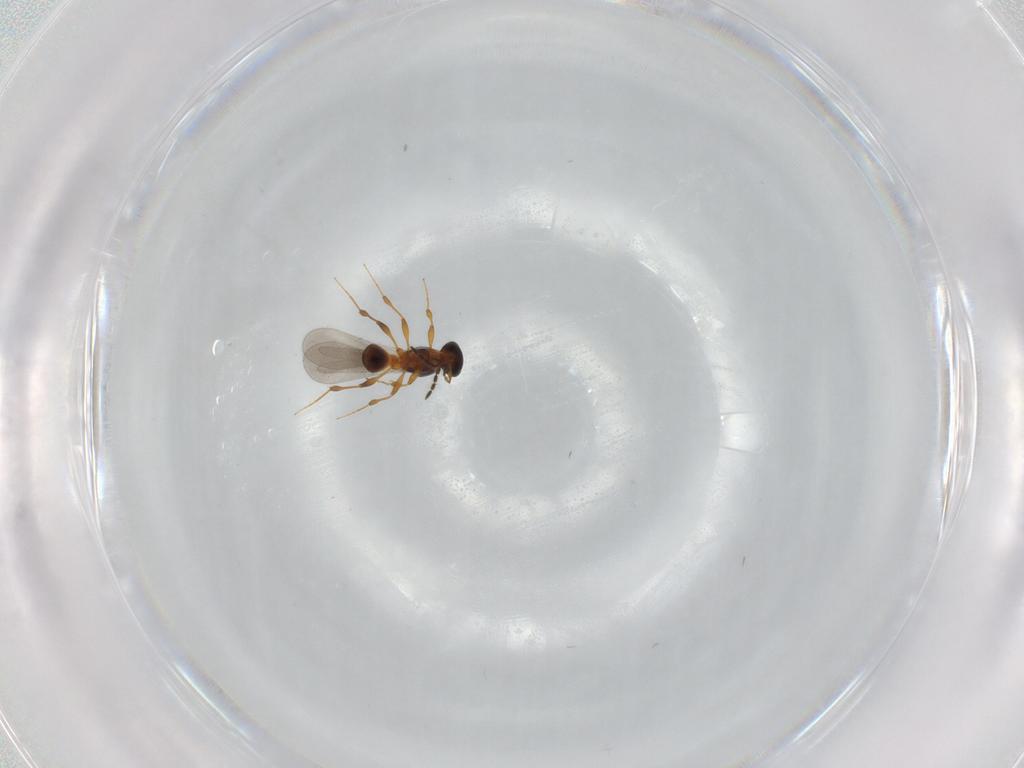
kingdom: Animalia
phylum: Arthropoda
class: Insecta
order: Hymenoptera
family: Platygastridae
